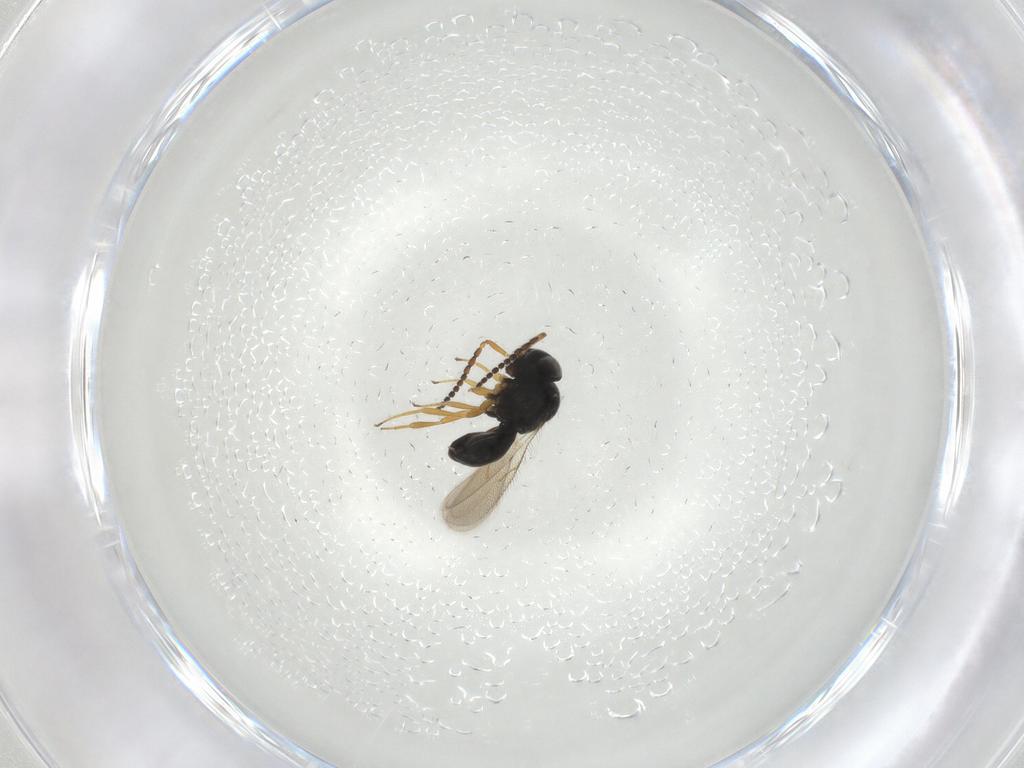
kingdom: Animalia
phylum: Arthropoda
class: Insecta
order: Hymenoptera
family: Scelionidae
